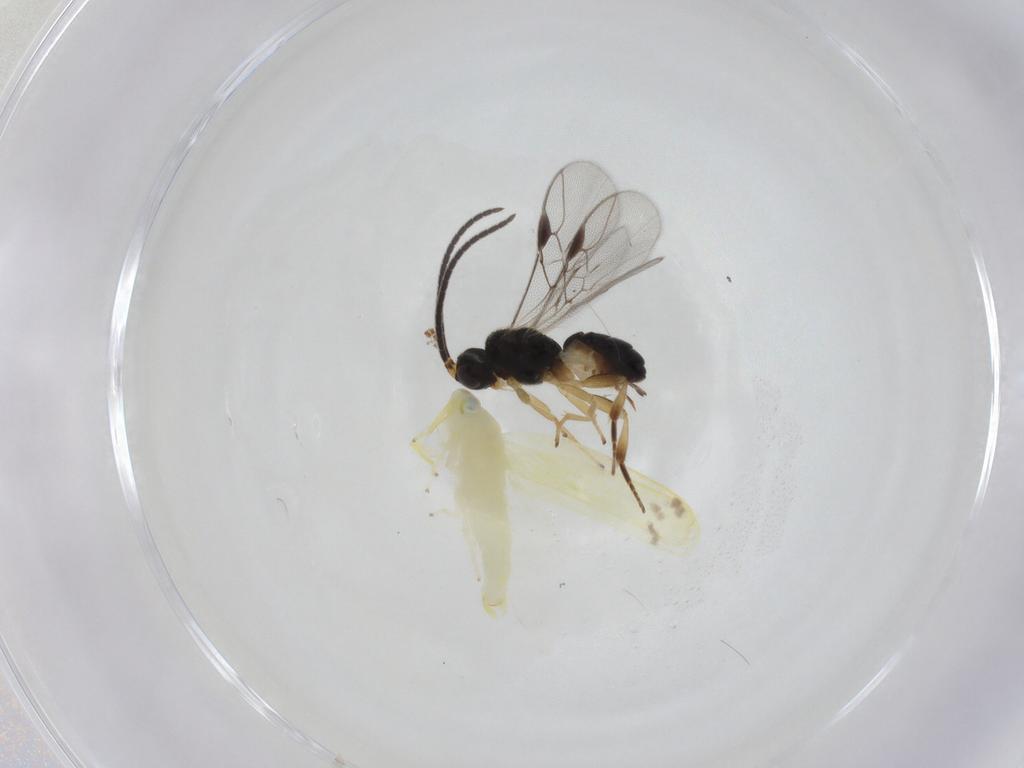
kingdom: Animalia
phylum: Arthropoda
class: Insecta
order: Hemiptera
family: Cicadellidae
